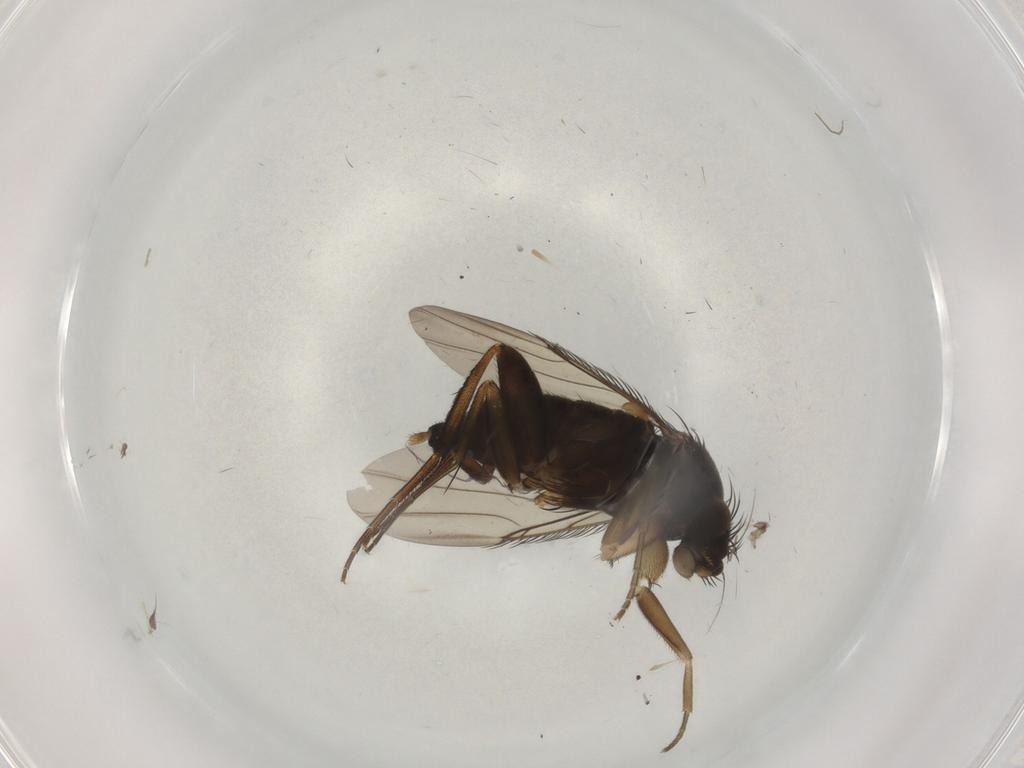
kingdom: Animalia
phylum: Arthropoda
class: Insecta
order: Diptera
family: Phoridae
